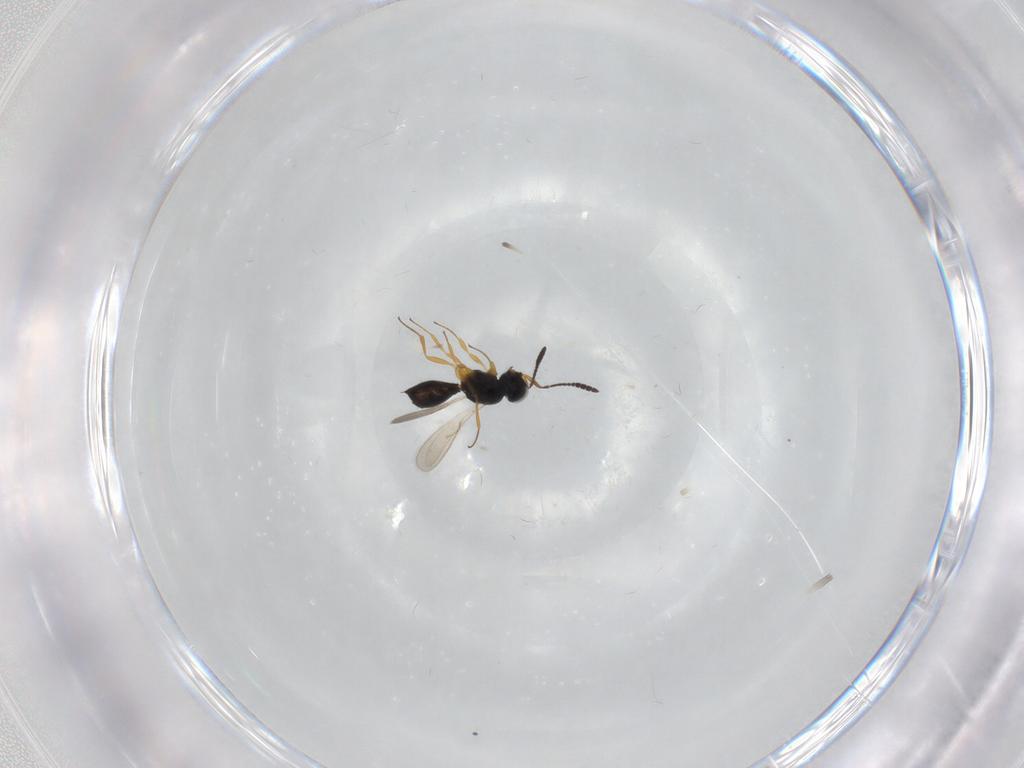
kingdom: Animalia
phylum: Arthropoda
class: Insecta
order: Hymenoptera
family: Scelionidae
